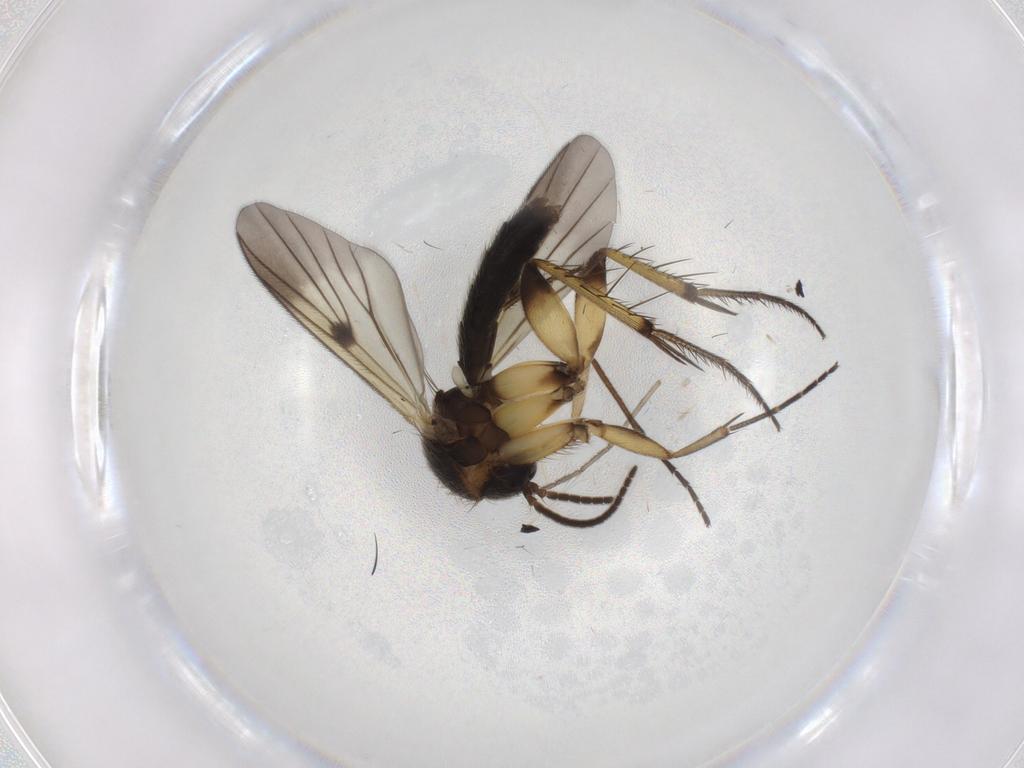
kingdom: Animalia
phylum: Arthropoda
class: Insecta
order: Diptera
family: Mycetophilidae
